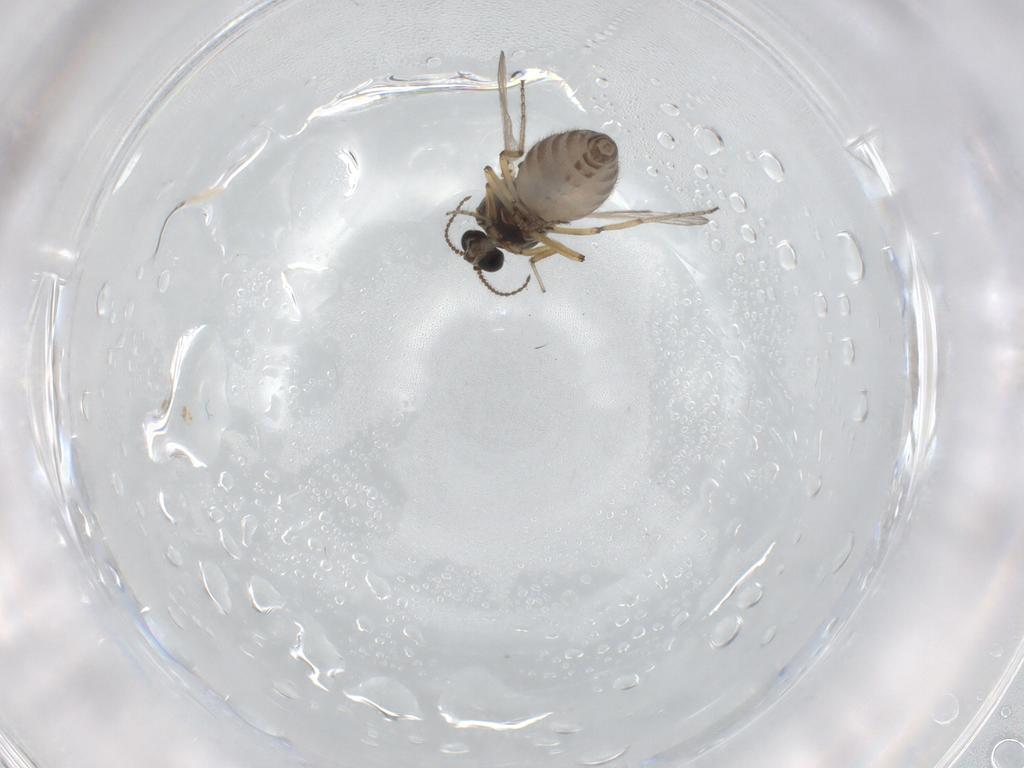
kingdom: Animalia
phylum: Arthropoda
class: Insecta
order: Diptera
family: Ceratopogonidae
